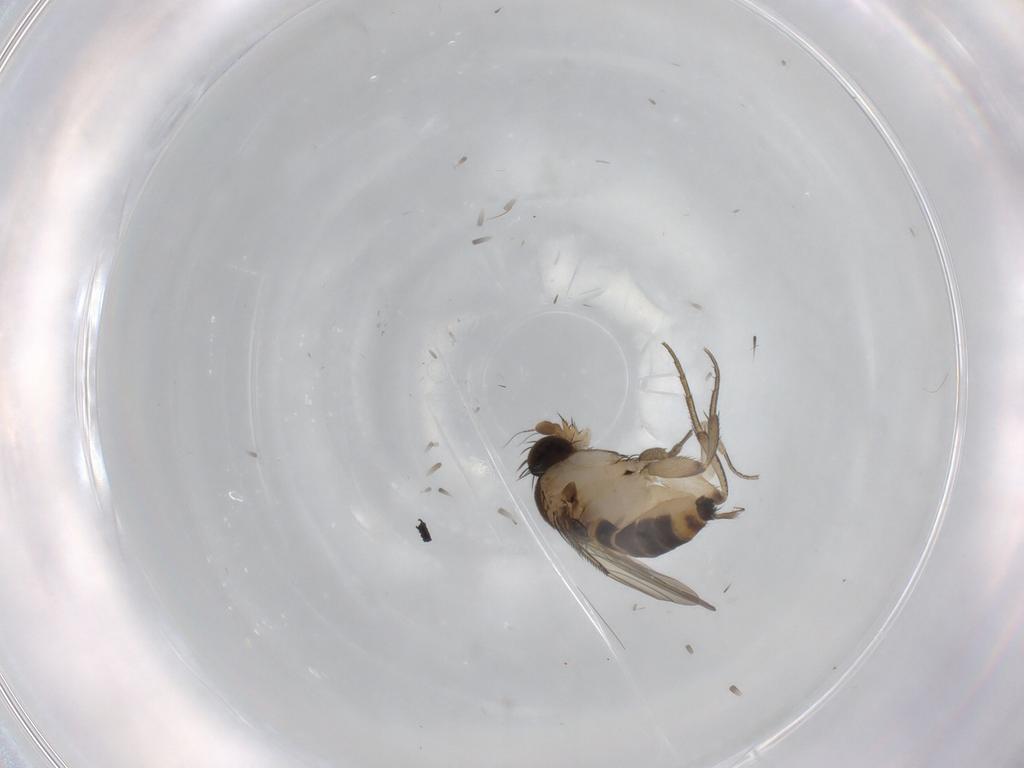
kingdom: Animalia
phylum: Arthropoda
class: Insecta
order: Diptera
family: Phoridae
